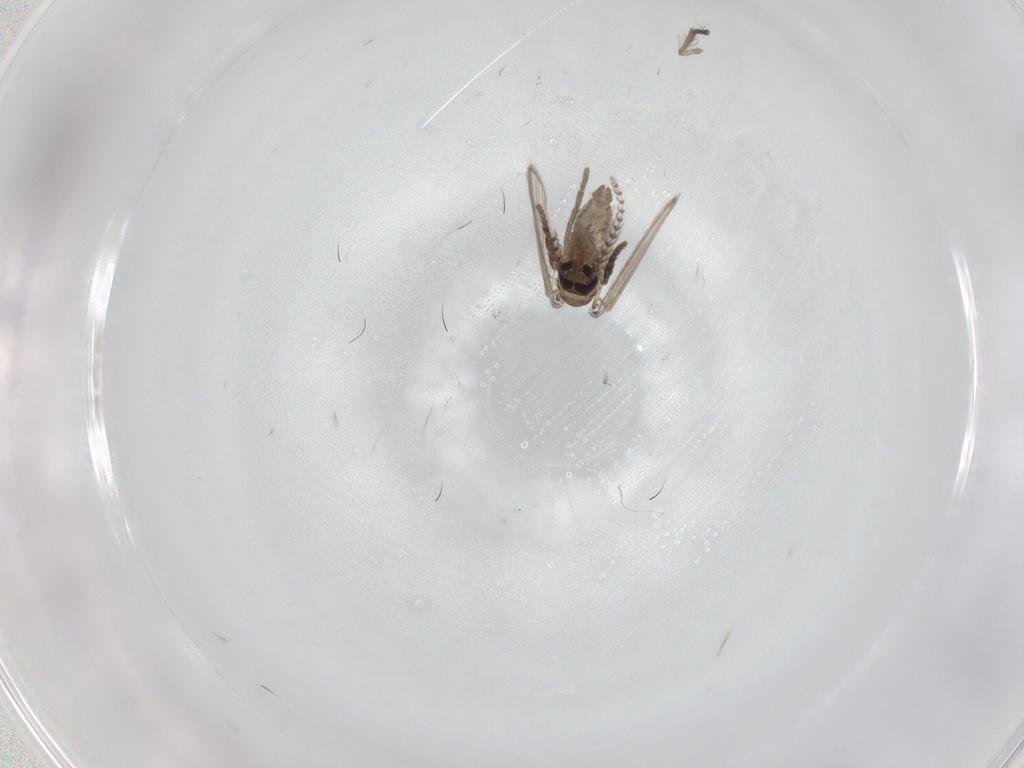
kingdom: Animalia
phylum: Arthropoda
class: Insecta
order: Diptera
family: Psychodidae
